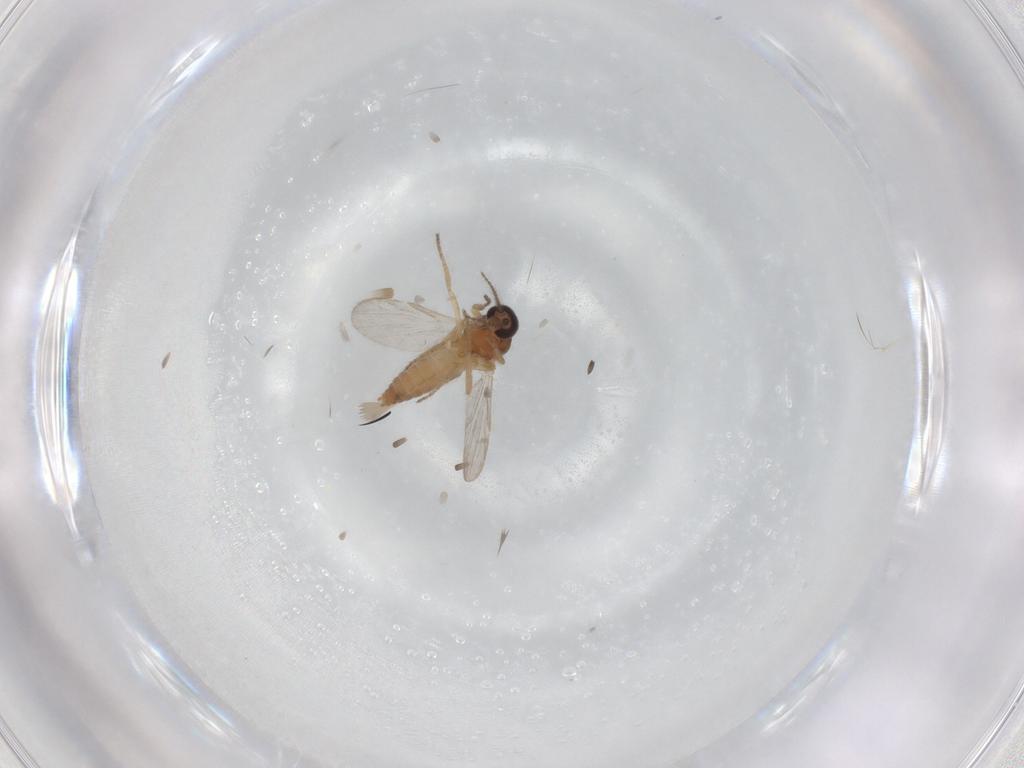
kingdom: Animalia
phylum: Arthropoda
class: Insecta
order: Diptera
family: Ceratopogonidae
